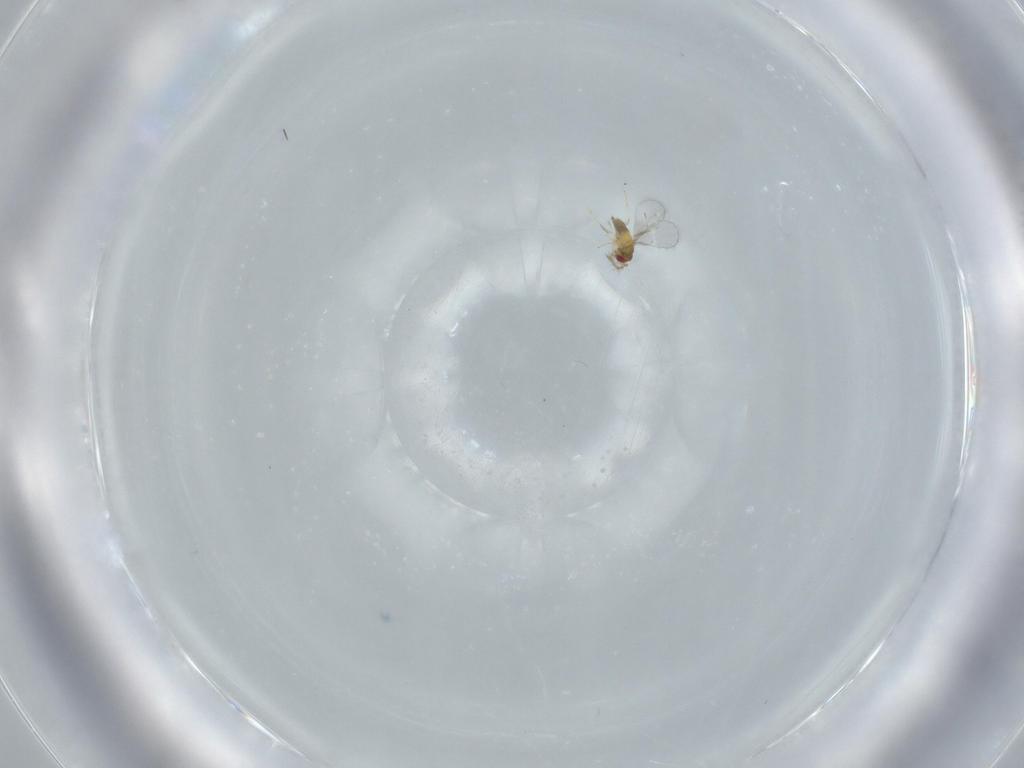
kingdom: Animalia
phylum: Arthropoda
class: Insecta
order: Hymenoptera
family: Trichogrammatidae
